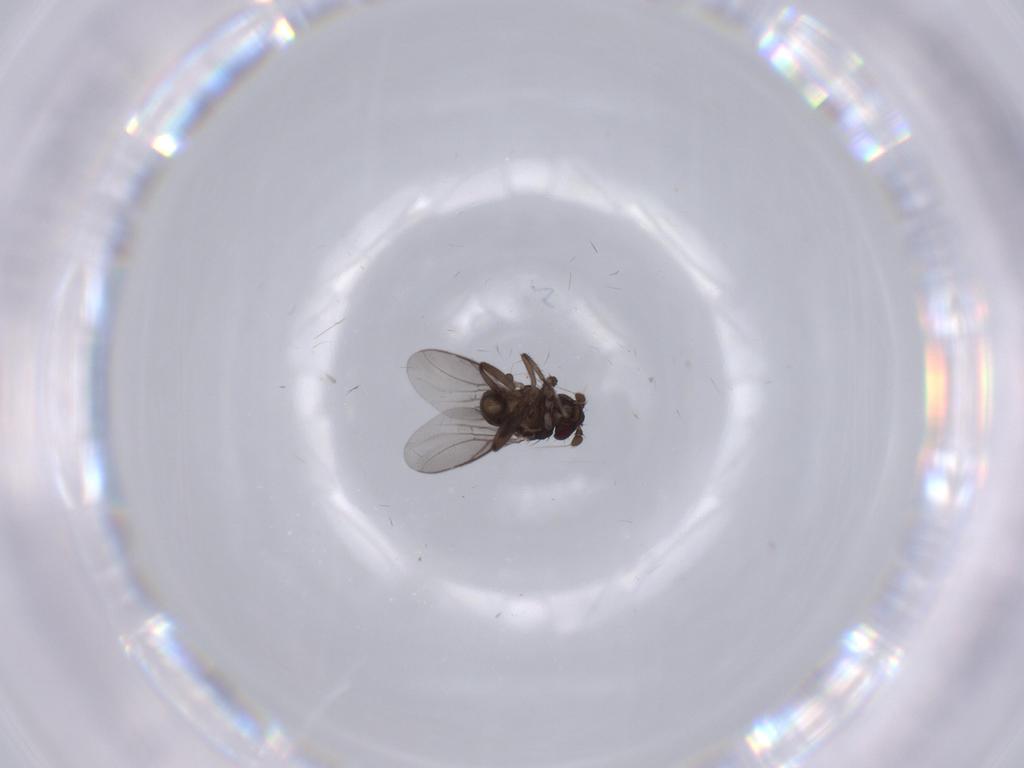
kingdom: Animalia
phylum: Arthropoda
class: Insecta
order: Diptera
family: Sphaeroceridae
